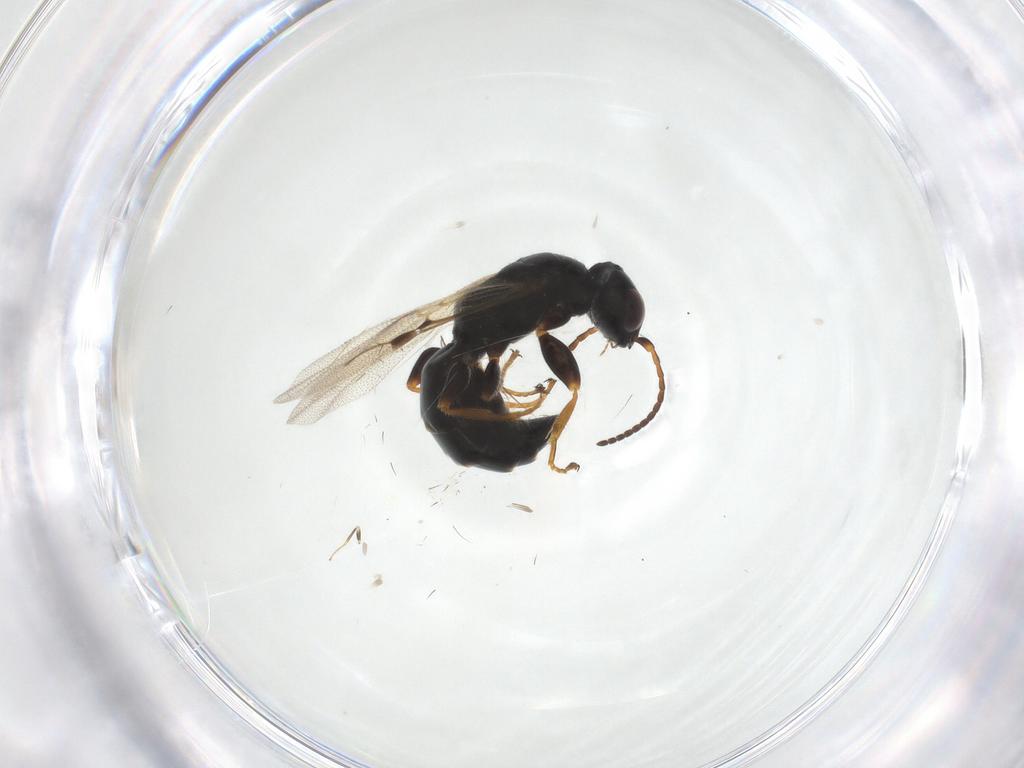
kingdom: Animalia
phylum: Arthropoda
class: Insecta
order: Hymenoptera
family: Bethylidae
